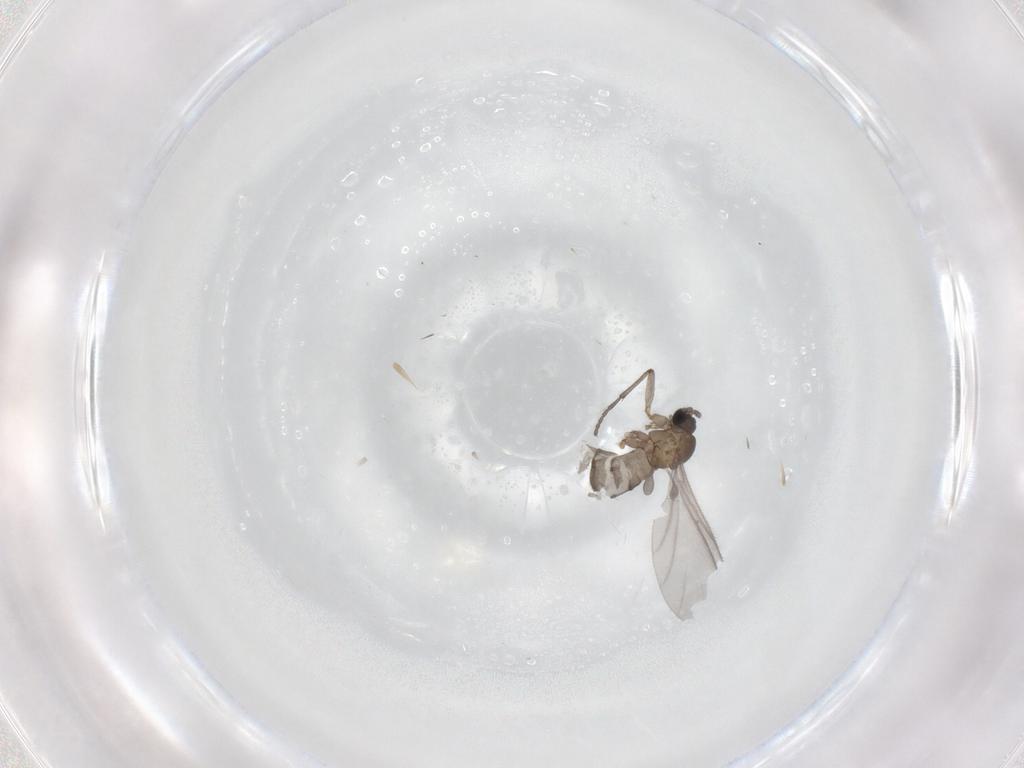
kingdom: Animalia
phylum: Arthropoda
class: Insecta
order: Diptera
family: Sciaridae
